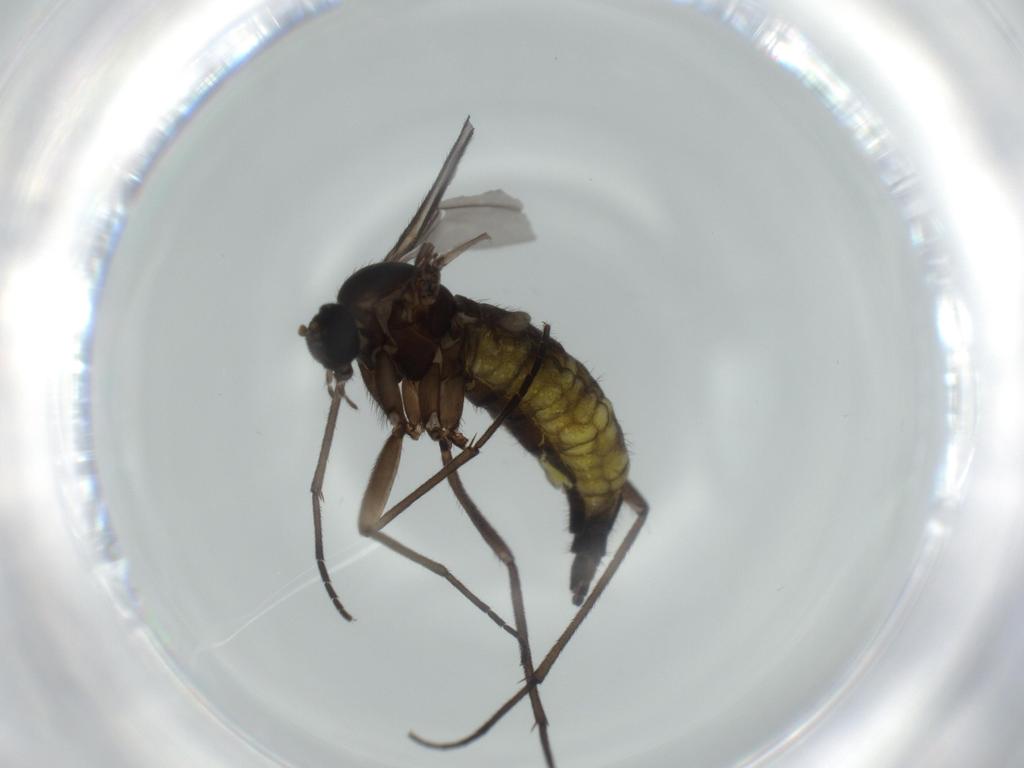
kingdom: Animalia
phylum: Arthropoda
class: Insecta
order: Diptera
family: Sciaridae
